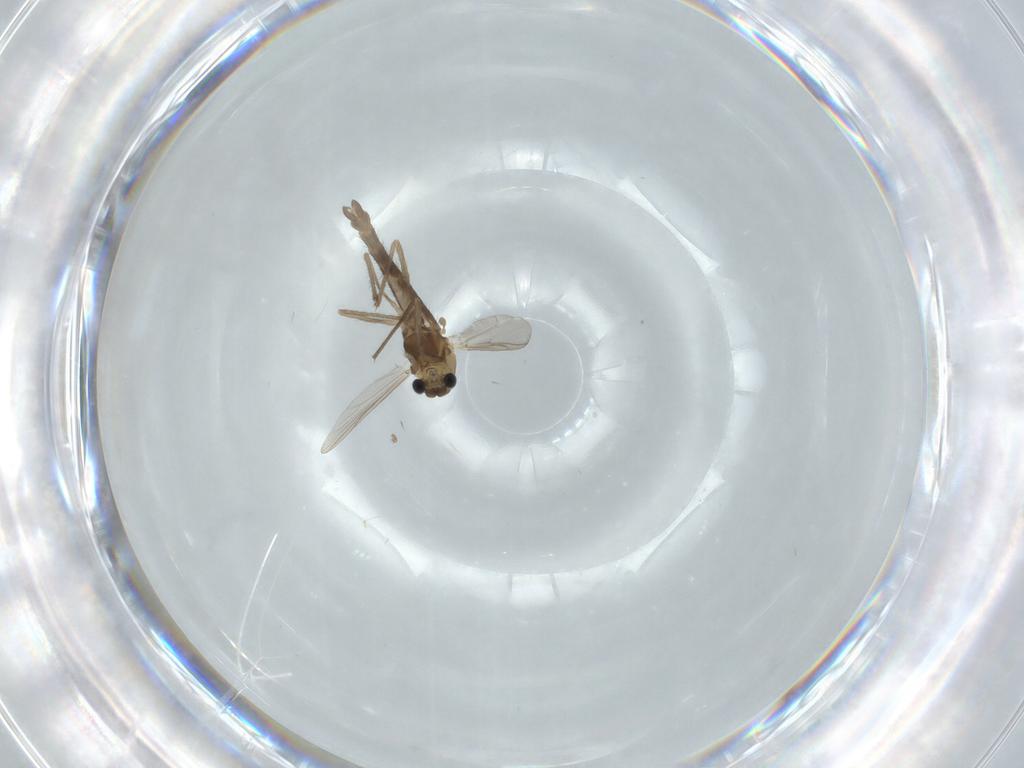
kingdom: Animalia
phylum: Arthropoda
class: Insecta
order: Diptera
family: Chironomidae
